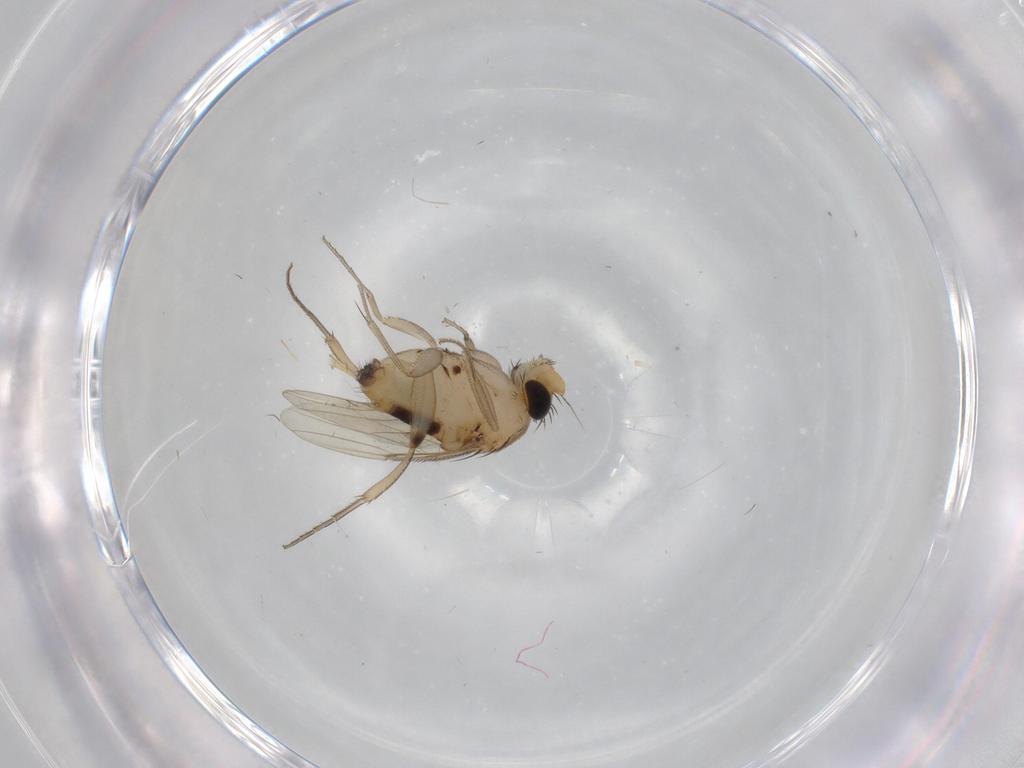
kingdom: Animalia
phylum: Arthropoda
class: Insecta
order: Diptera
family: Phoridae
